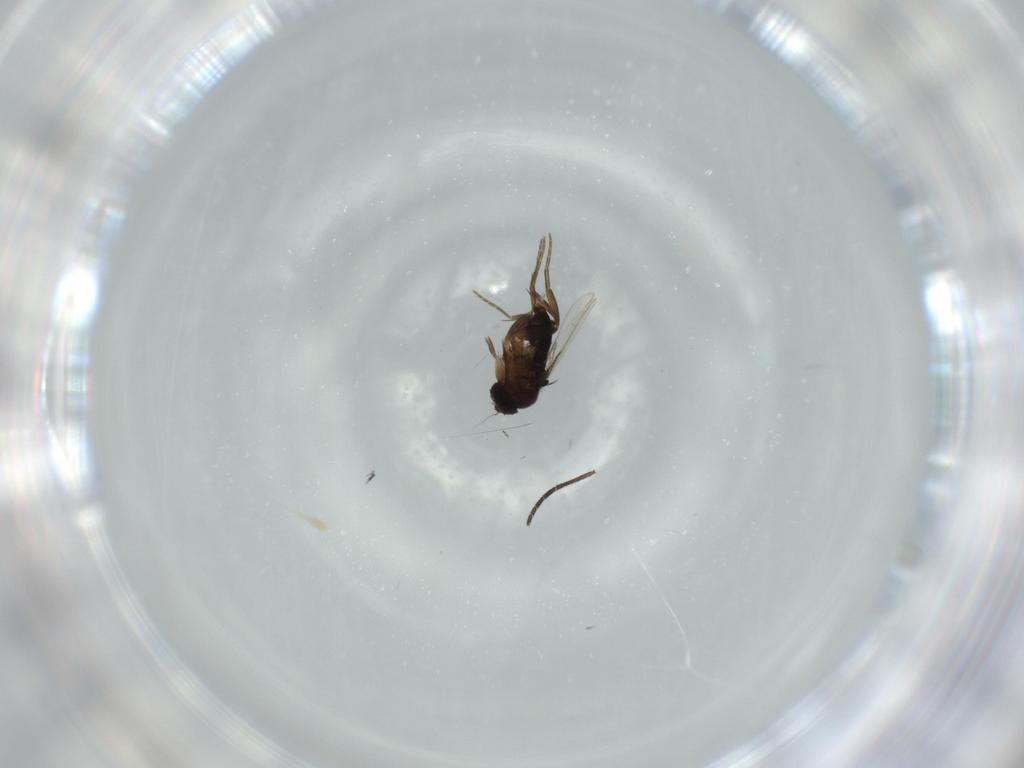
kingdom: Animalia
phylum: Arthropoda
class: Insecta
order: Diptera
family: Phoridae
